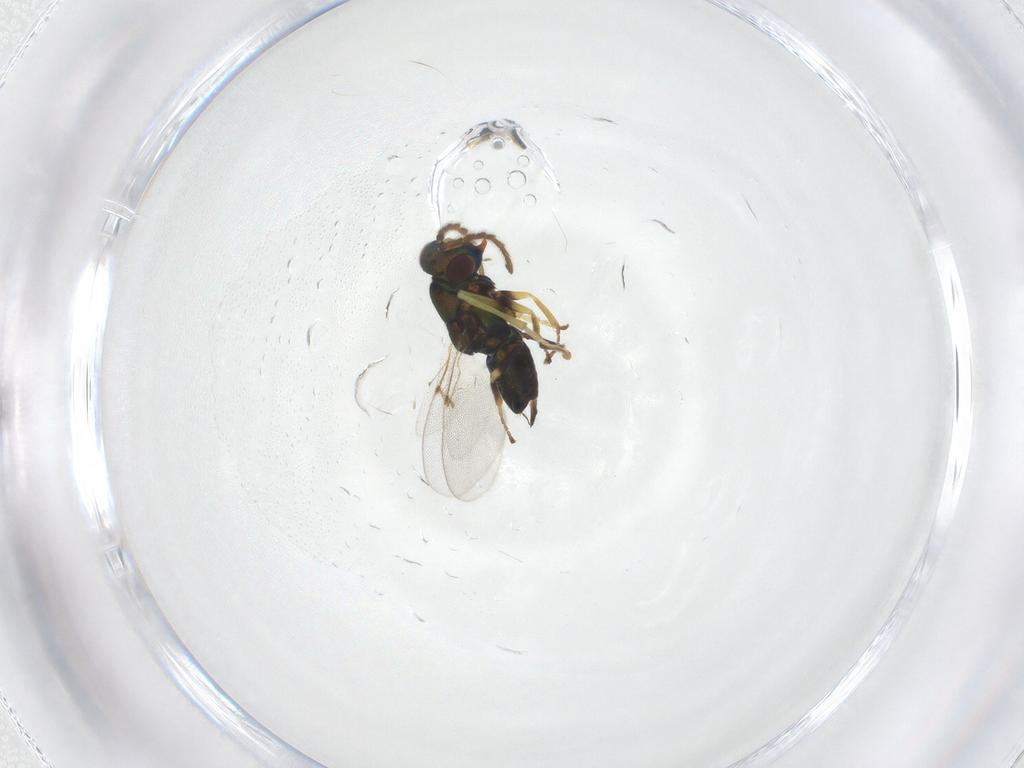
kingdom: Animalia
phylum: Arthropoda
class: Insecta
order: Hymenoptera
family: Encyrtidae
